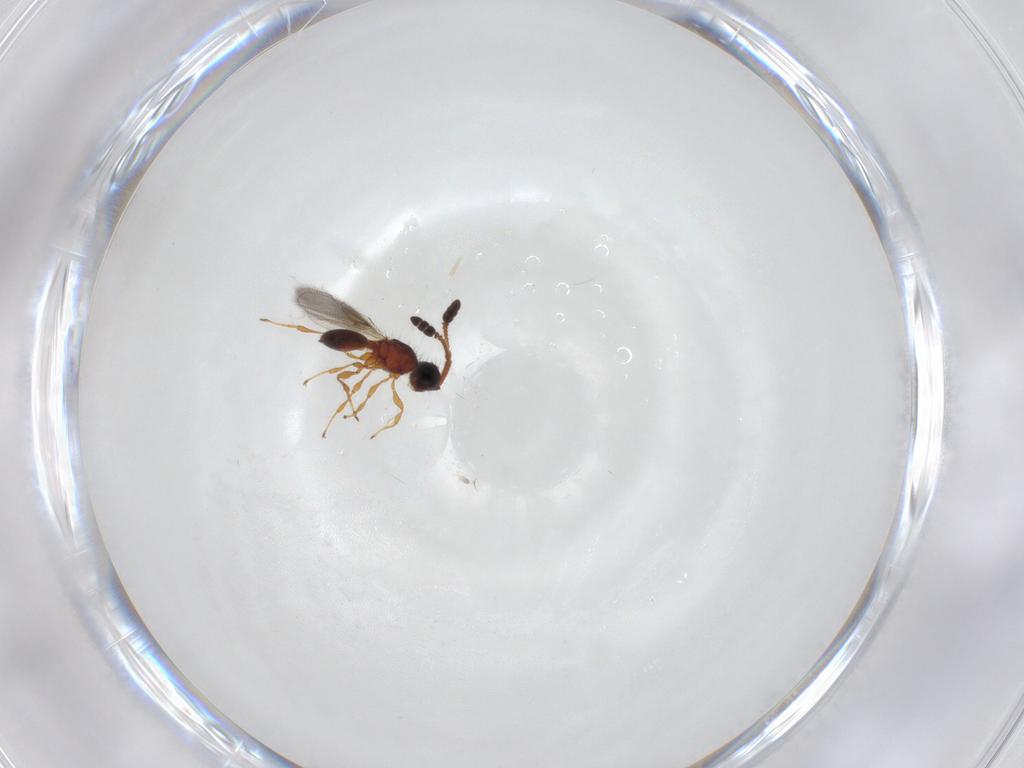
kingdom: Animalia
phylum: Arthropoda
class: Insecta
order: Hymenoptera
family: Diapriidae
